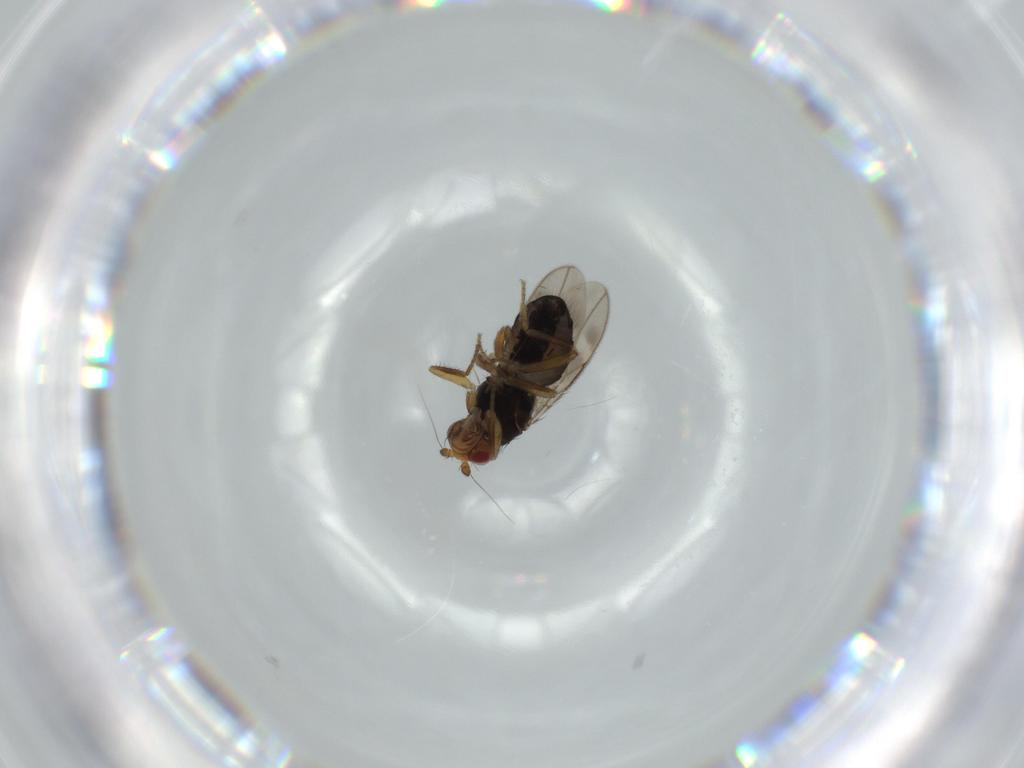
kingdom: Animalia
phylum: Arthropoda
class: Insecta
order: Diptera
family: Sphaeroceridae
